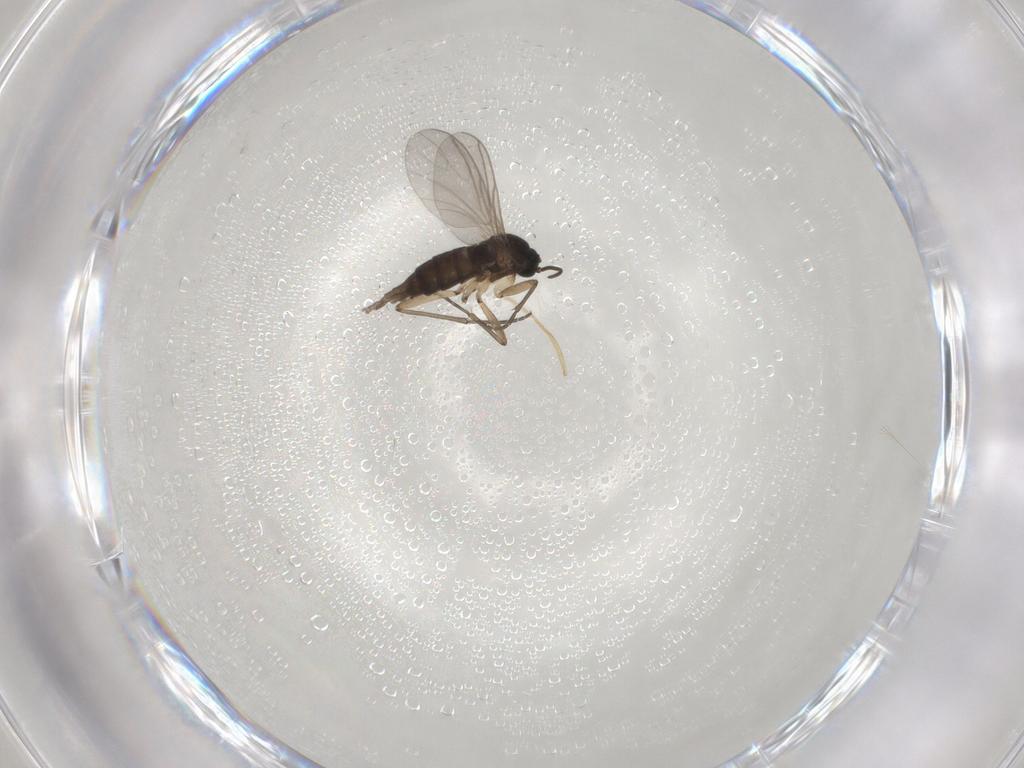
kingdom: Animalia
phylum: Arthropoda
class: Insecta
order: Diptera
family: Sciaridae
